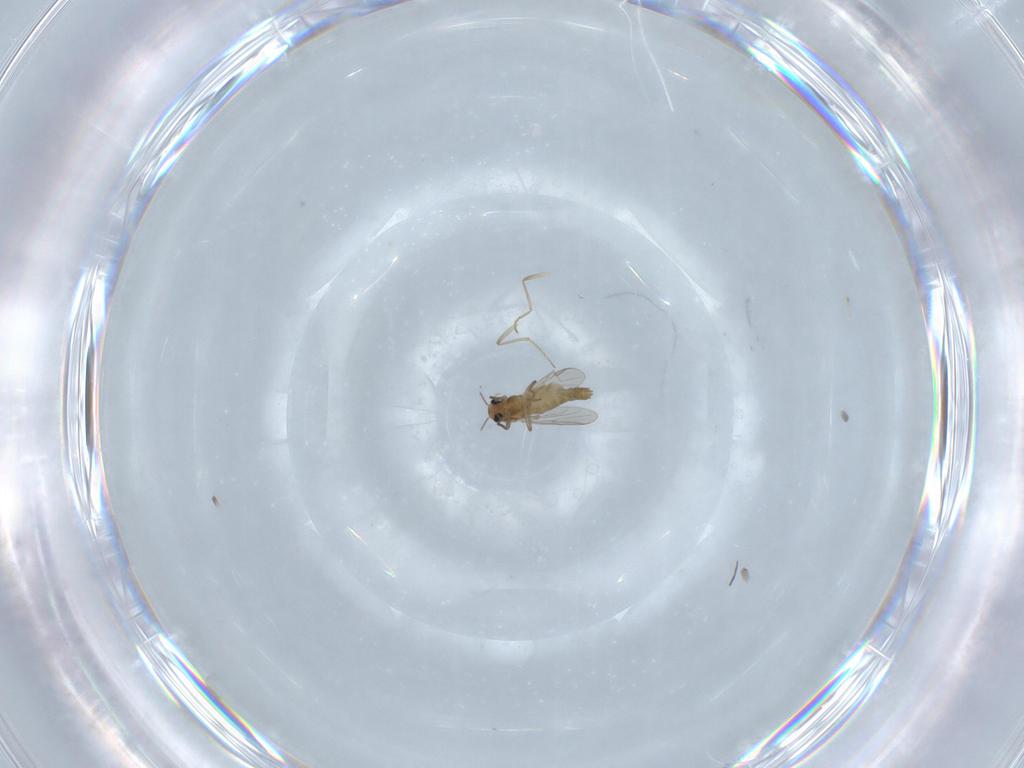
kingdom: Animalia
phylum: Arthropoda
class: Insecta
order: Diptera
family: Chironomidae
